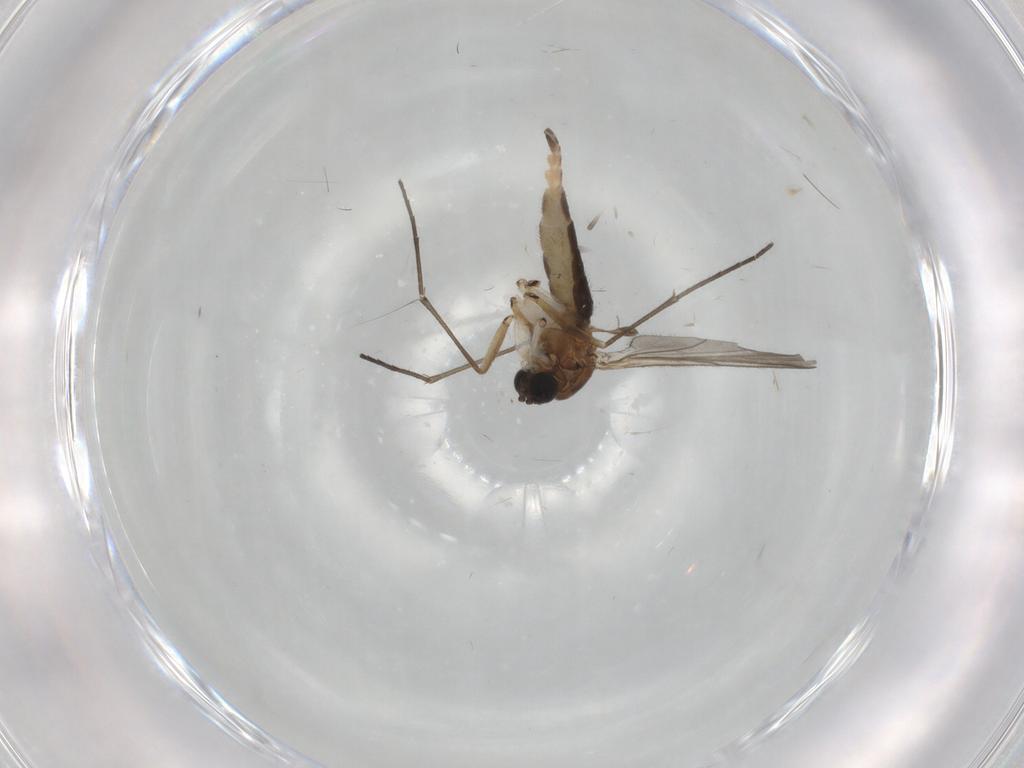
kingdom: Animalia
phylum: Arthropoda
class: Insecta
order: Diptera
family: Sciaridae
